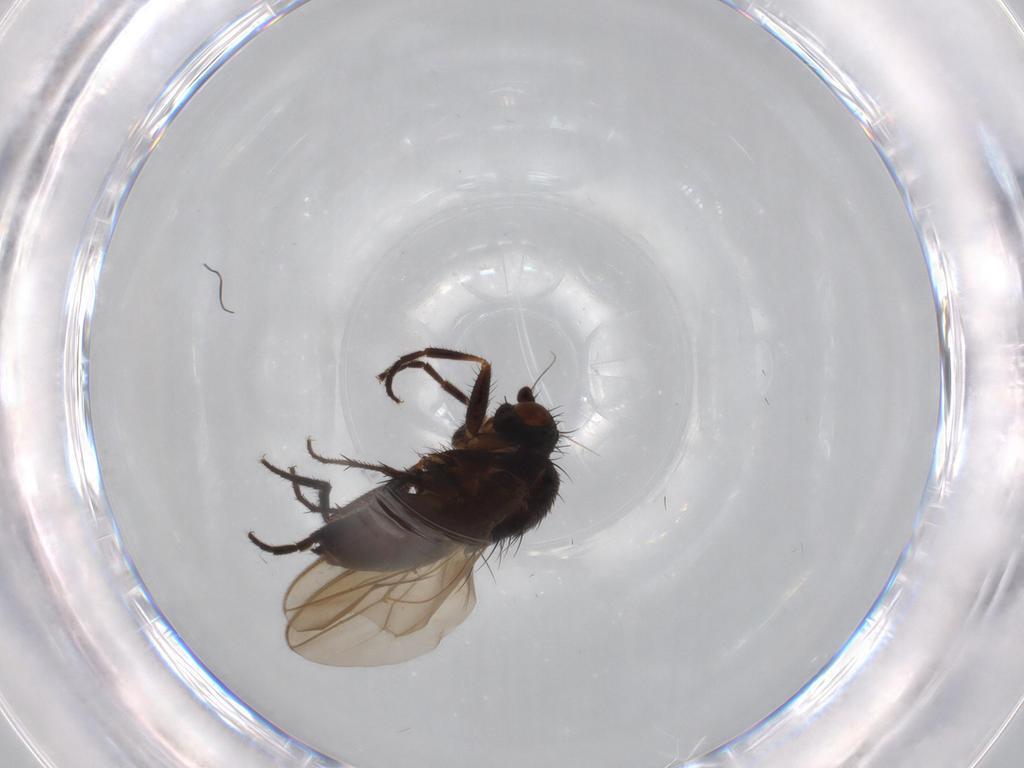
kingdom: Animalia
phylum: Arthropoda
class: Insecta
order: Diptera
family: Sphaeroceridae
